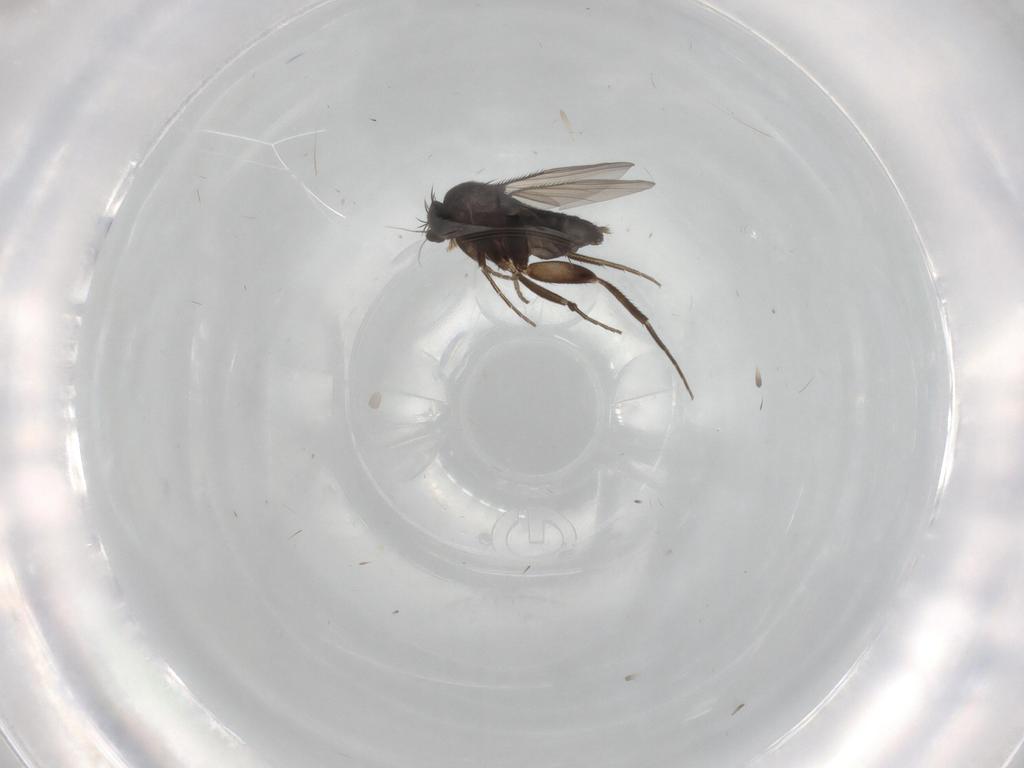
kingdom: Animalia
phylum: Arthropoda
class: Insecta
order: Diptera
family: Chironomidae
